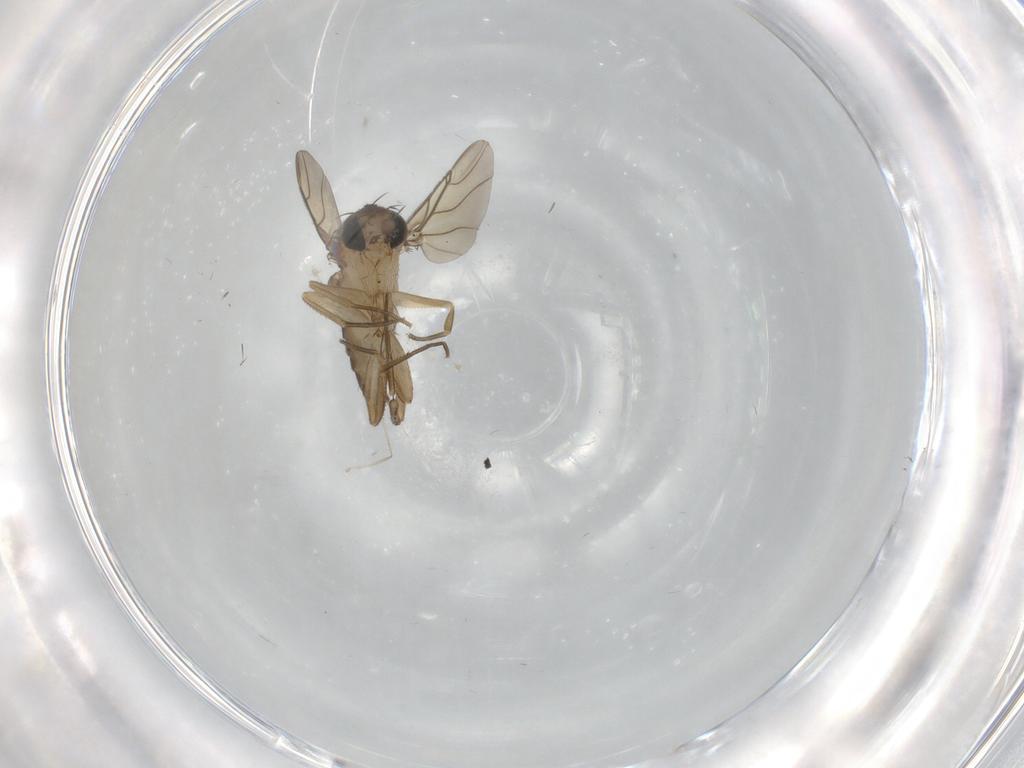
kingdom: Animalia
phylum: Arthropoda
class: Insecta
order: Diptera
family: Phoridae
